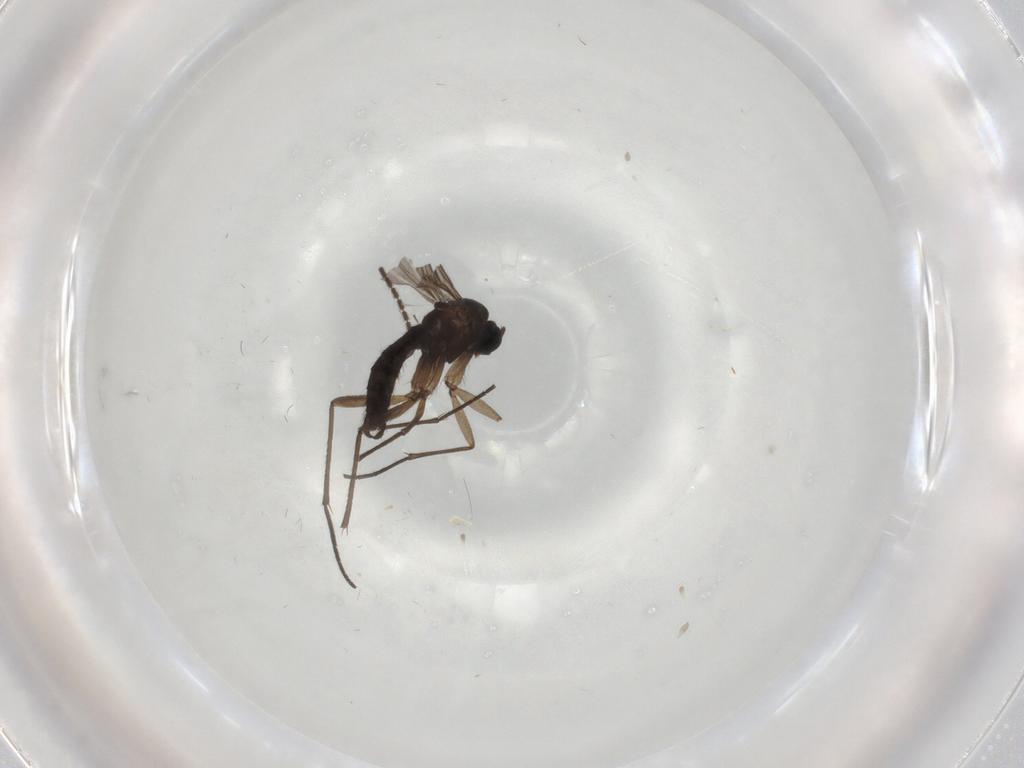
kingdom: Animalia
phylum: Arthropoda
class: Insecta
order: Diptera
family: Sciaridae
